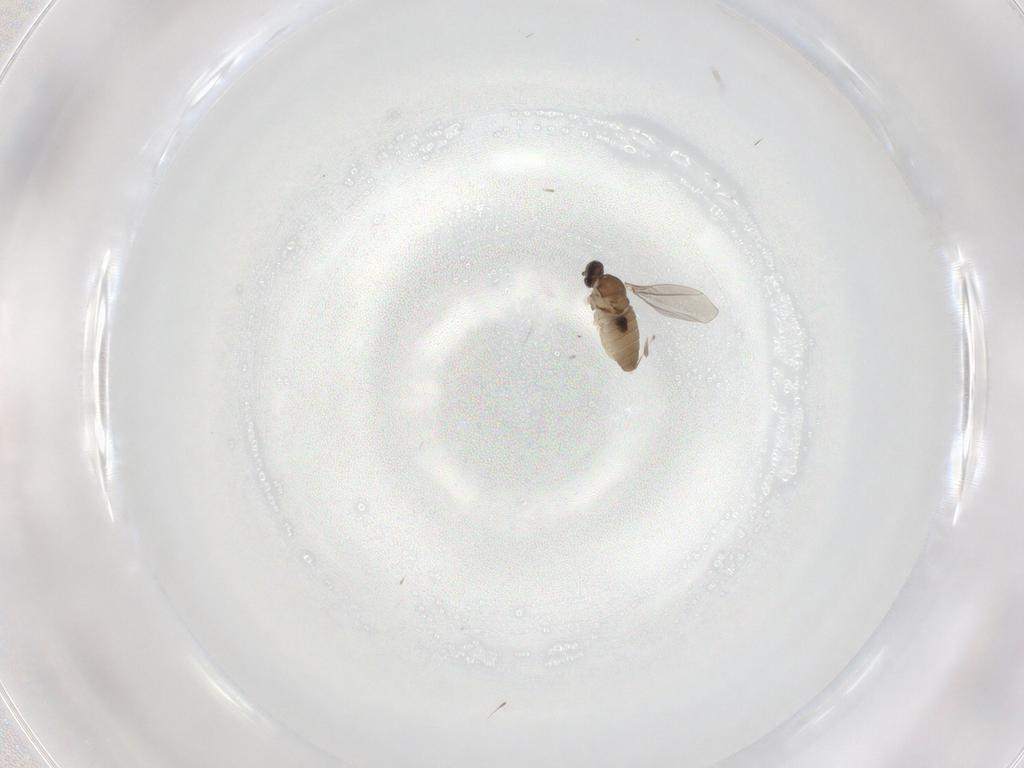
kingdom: Animalia
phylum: Arthropoda
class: Insecta
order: Diptera
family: Cecidomyiidae
